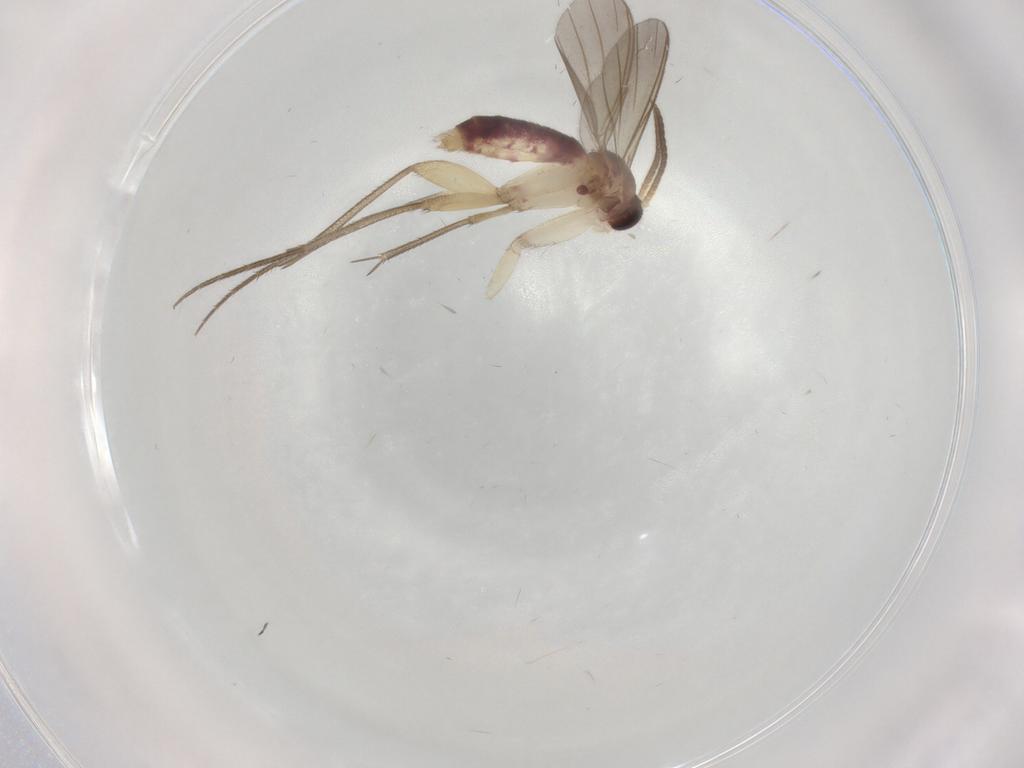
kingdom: Animalia
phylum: Arthropoda
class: Insecta
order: Diptera
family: Mycetophilidae
